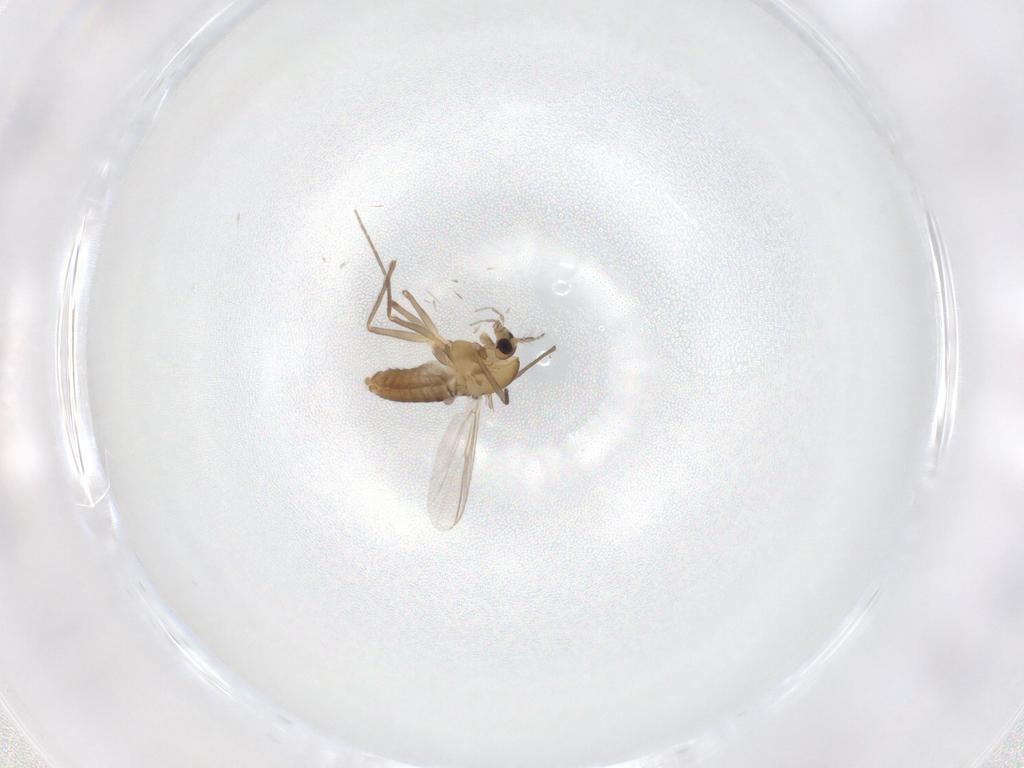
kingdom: Animalia
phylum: Arthropoda
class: Insecta
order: Diptera
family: Chironomidae
